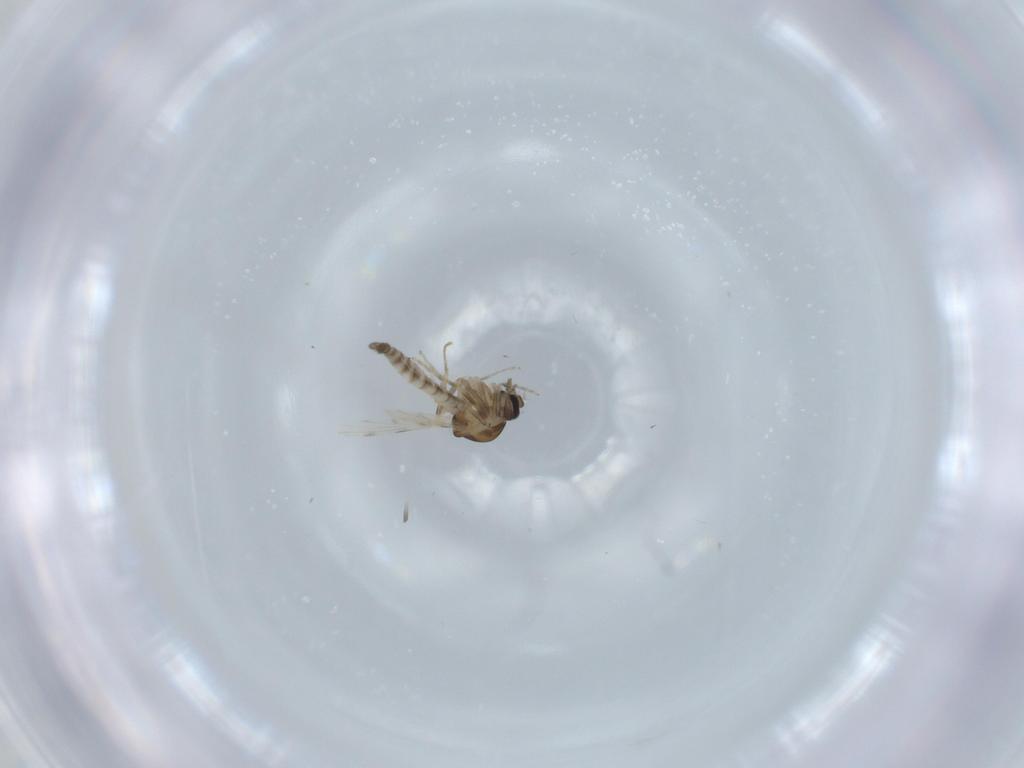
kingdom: Animalia
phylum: Arthropoda
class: Insecta
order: Diptera
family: Ceratopogonidae
